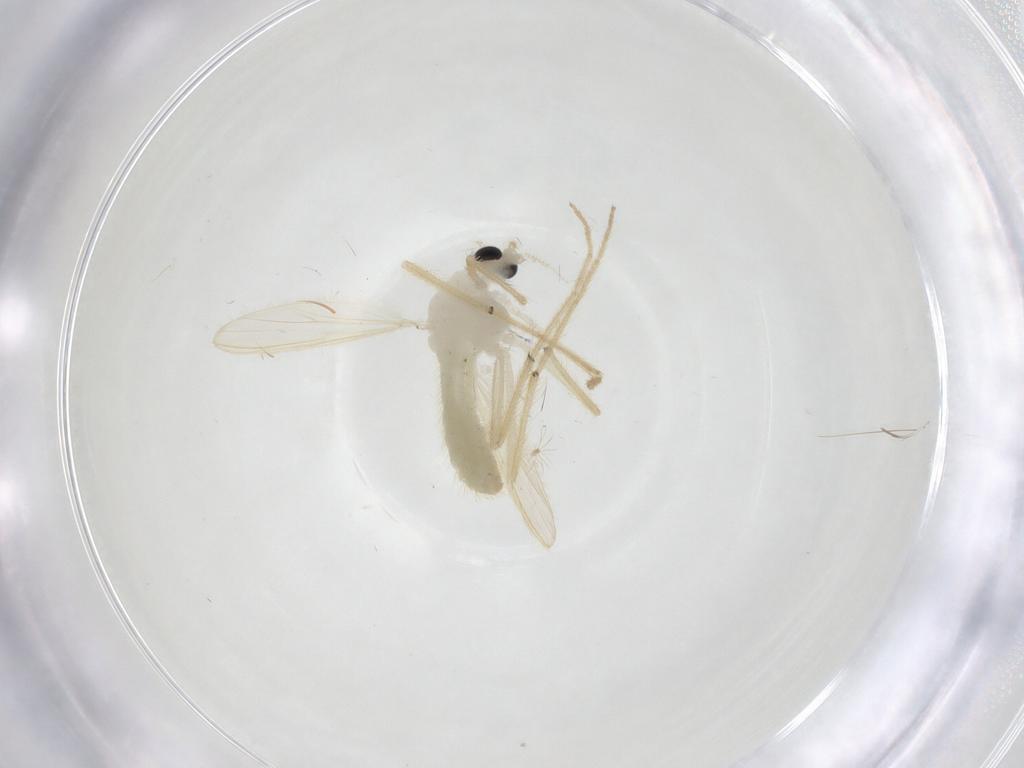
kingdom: Animalia
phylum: Arthropoda
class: Insecta
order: Diptera
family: Chironomidae
